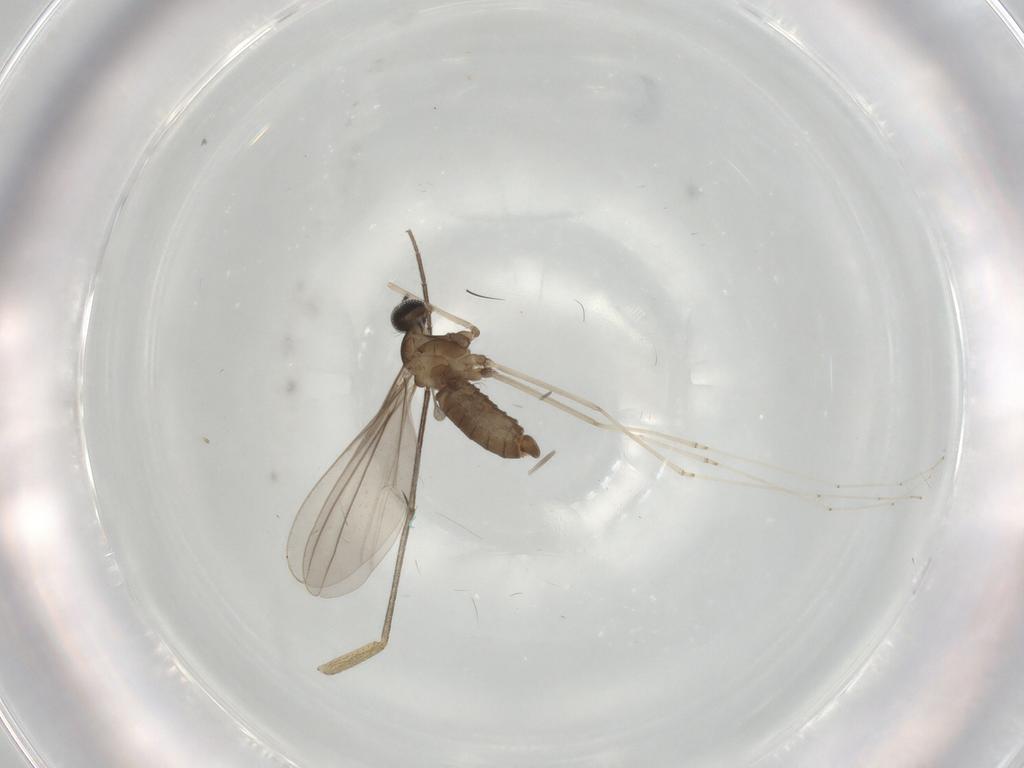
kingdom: Animalia
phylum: Arthropoda
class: Insecta
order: Diptera
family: Cecidomyiidae
